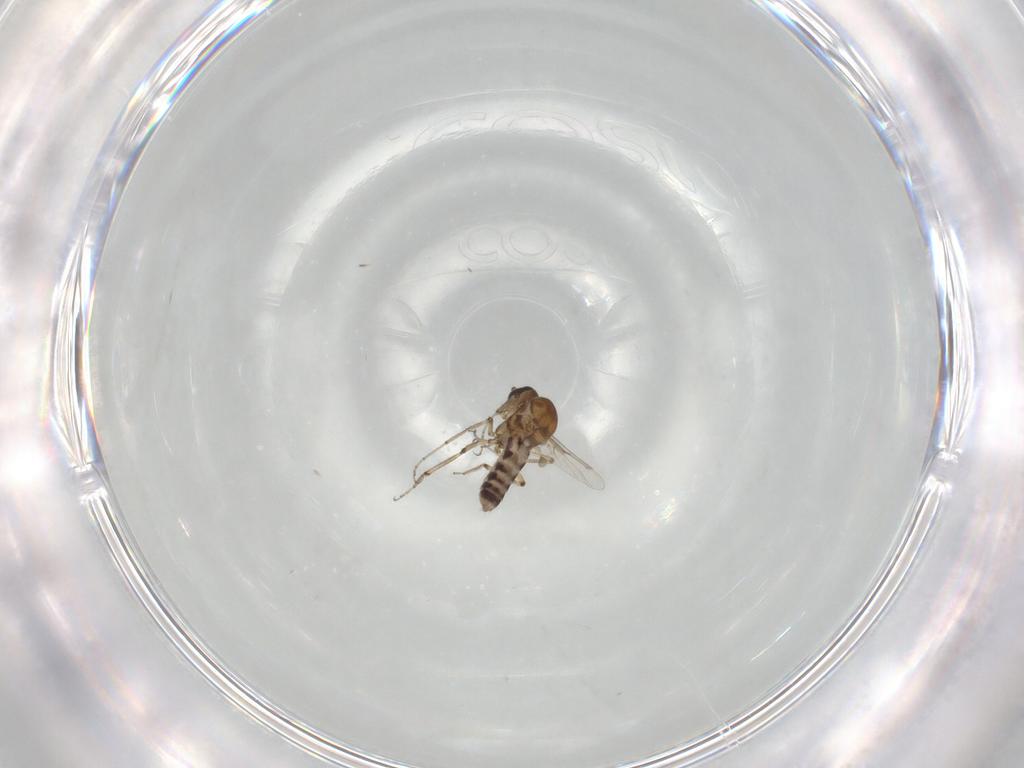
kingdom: Animalia
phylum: Arthropoda
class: Insecta
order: Diptera
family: Ceratopogonidae
